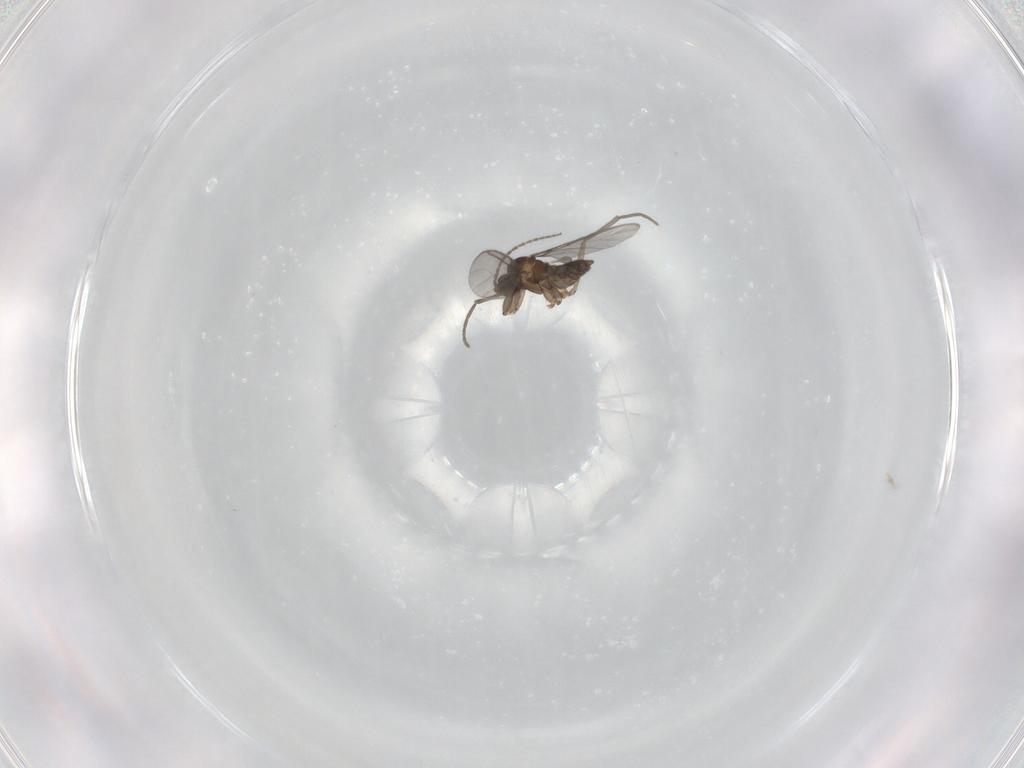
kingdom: Animalia
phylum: Arthropoda
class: Insecta
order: Diptera
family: Sciaridae
